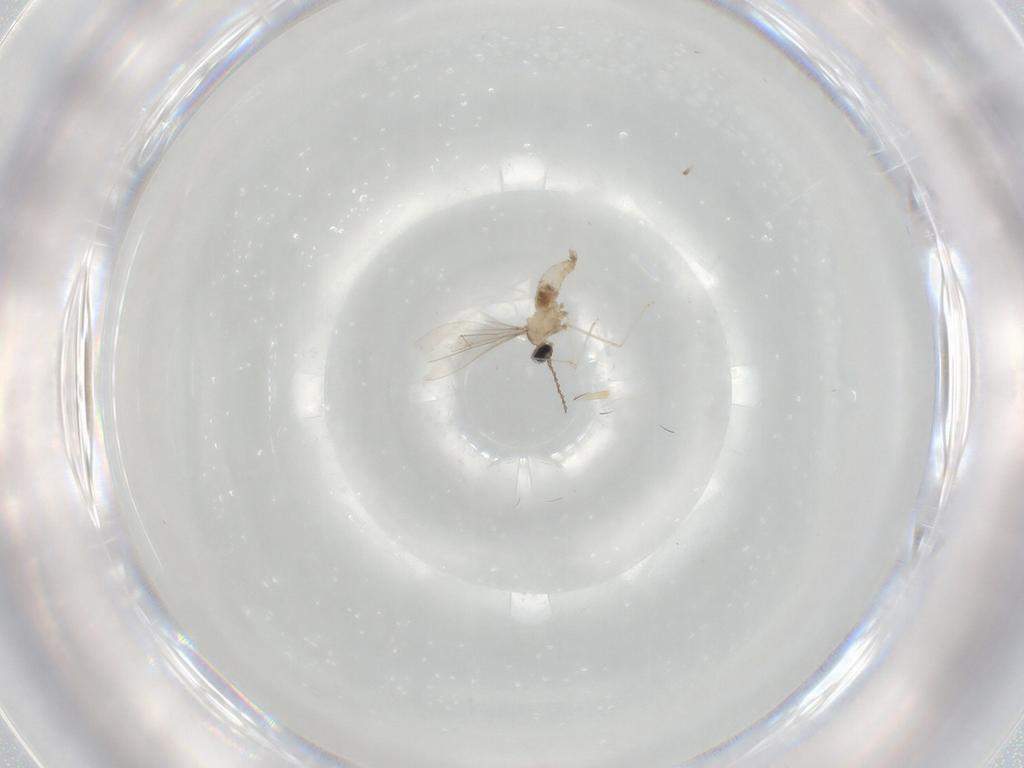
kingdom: Animalia
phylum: Arthropoda
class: Insecta
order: Diptera
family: Cecidomyiidae
